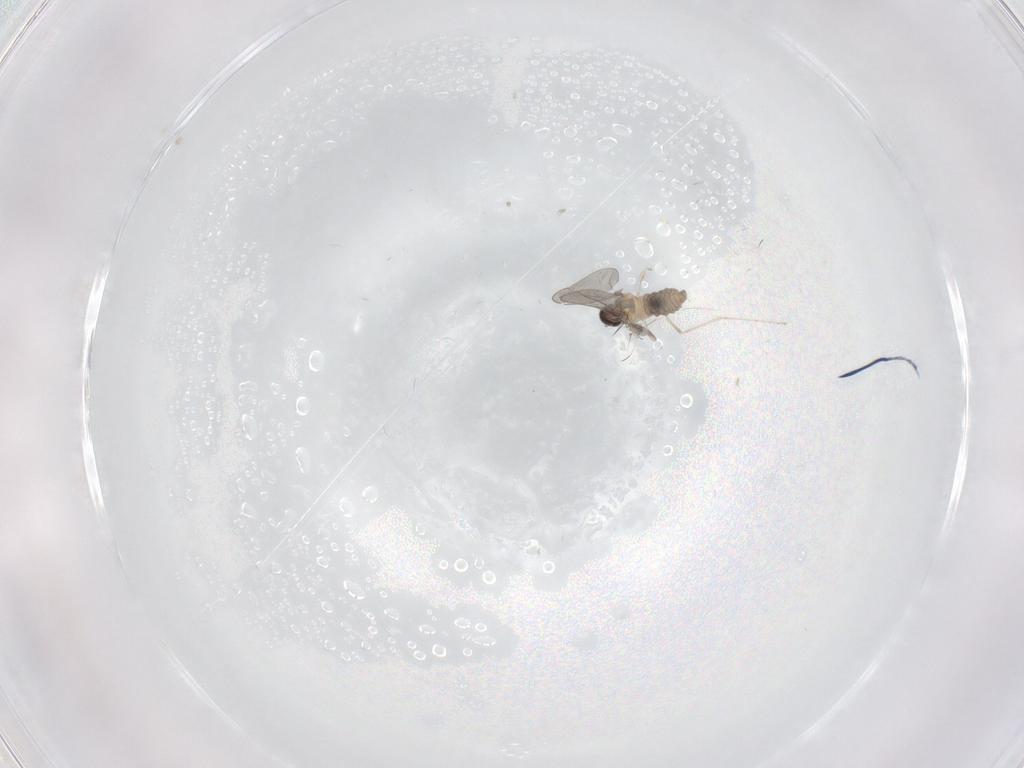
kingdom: Animalia
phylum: Arthropoda
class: Insecta
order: Diptera
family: Cecidomyiidae
